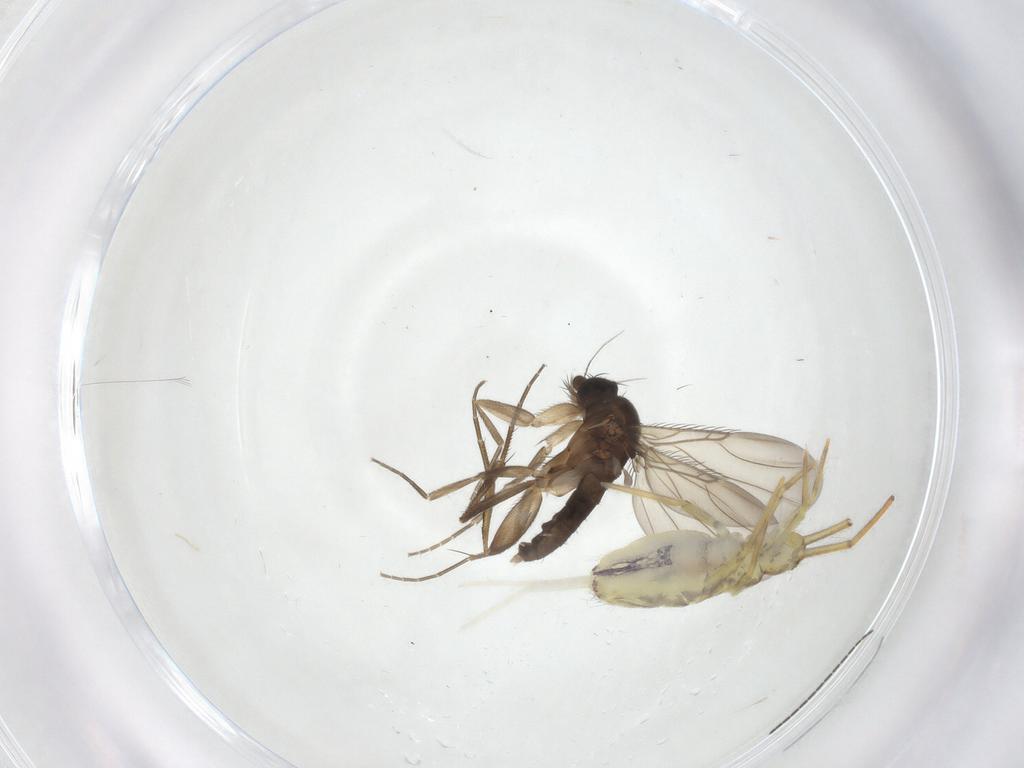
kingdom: Animalia
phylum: Arthropoda
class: Insecta
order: Diptera
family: Phoridae
